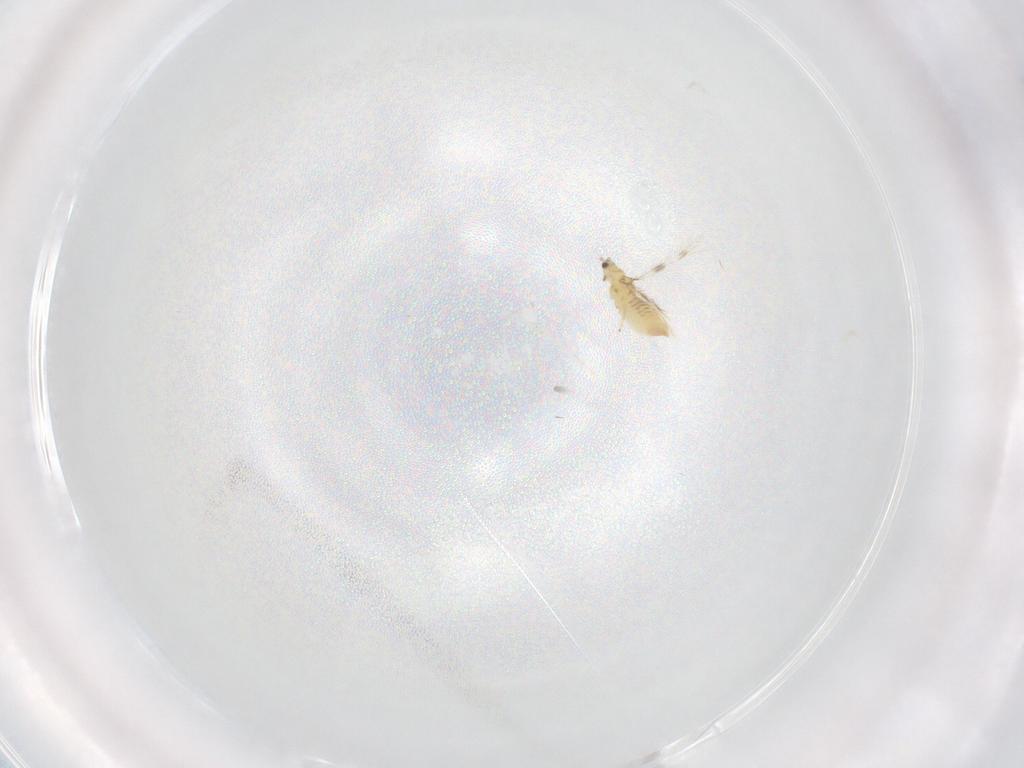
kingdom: Animalia
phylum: Arthropoda
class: Insecta
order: Thysanoptera
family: Thripidae
